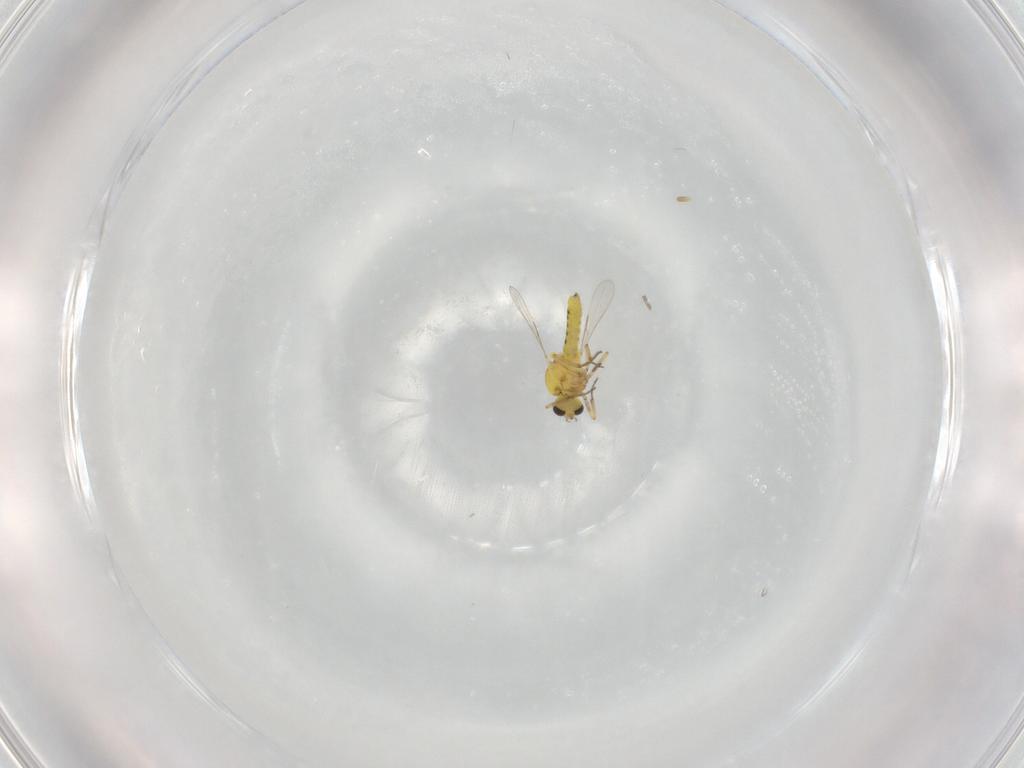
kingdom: Animalia
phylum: Arthropoda
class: Insecta
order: Diptera
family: Ceratopogonidae
